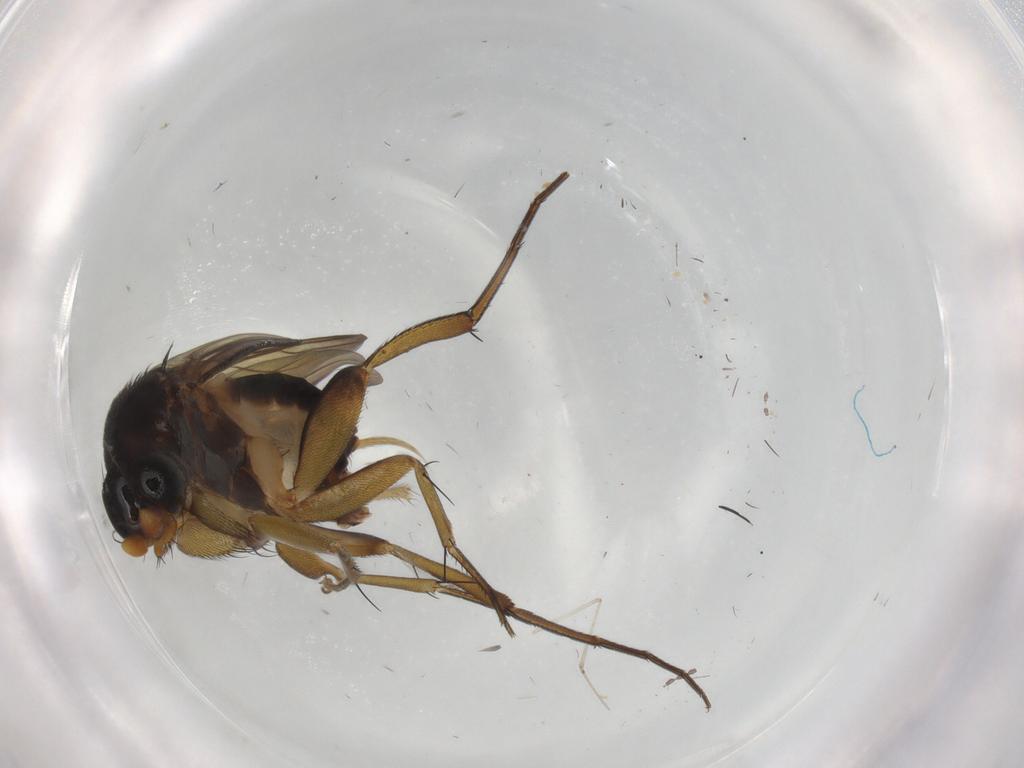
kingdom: Animalia
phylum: Arthropoda
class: Insecta
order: Diptera
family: Phoridae
